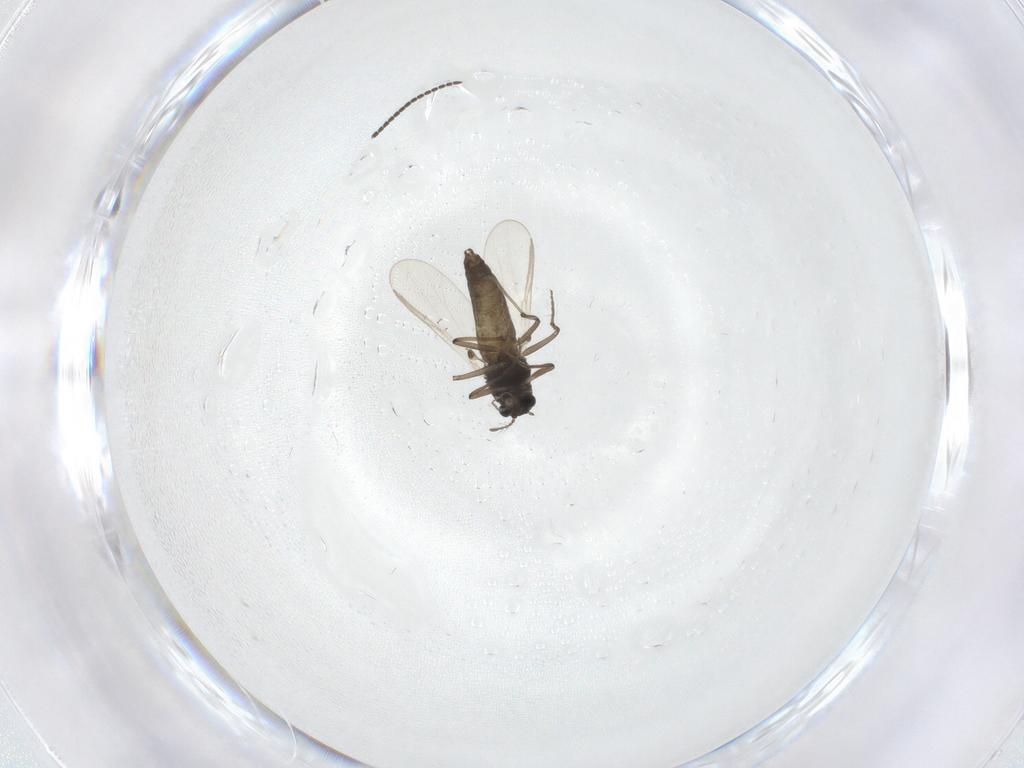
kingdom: Animalia
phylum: Arthropoda
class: Insecta
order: Diptera
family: Chironomidae
